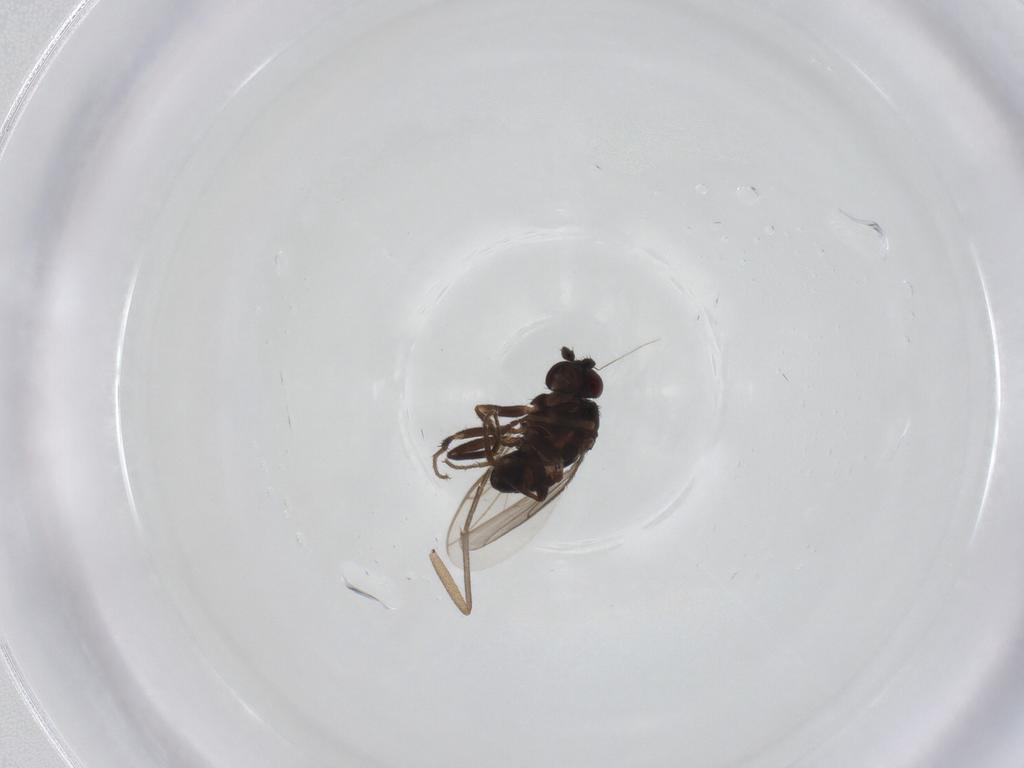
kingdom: Animalia
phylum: Arthropoda
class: Insecta
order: Diptera
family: Sphaeroceridae
